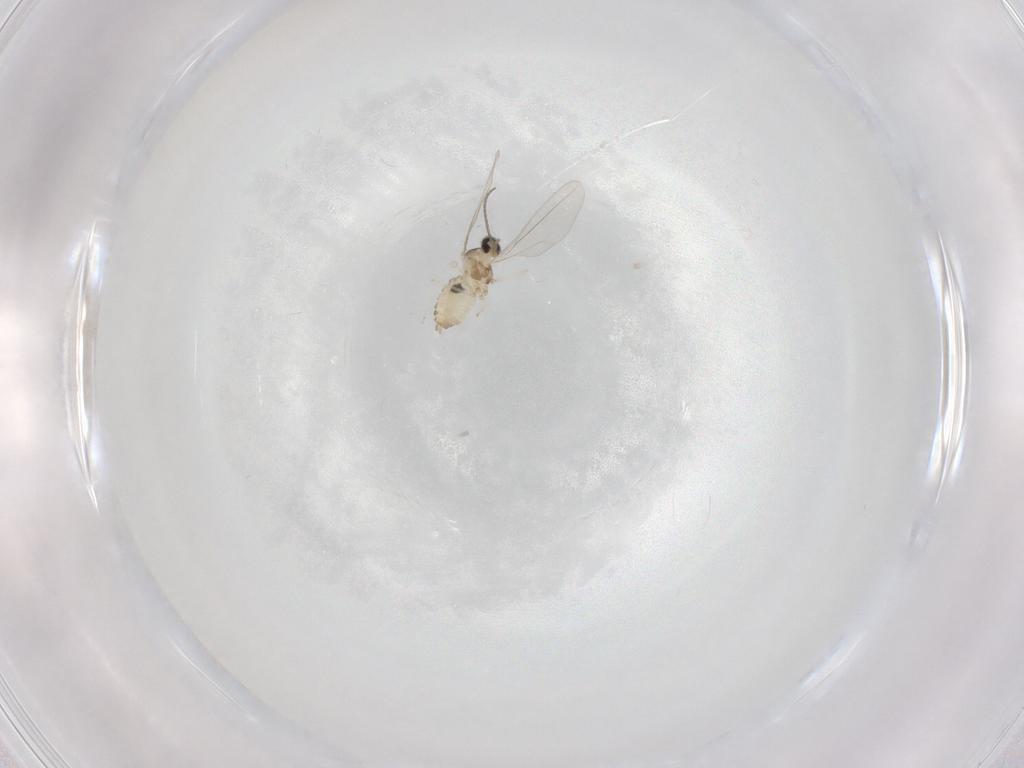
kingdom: Animalia
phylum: Arthropoda
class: Insecta
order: Diptera
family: Cecidomyiidae
